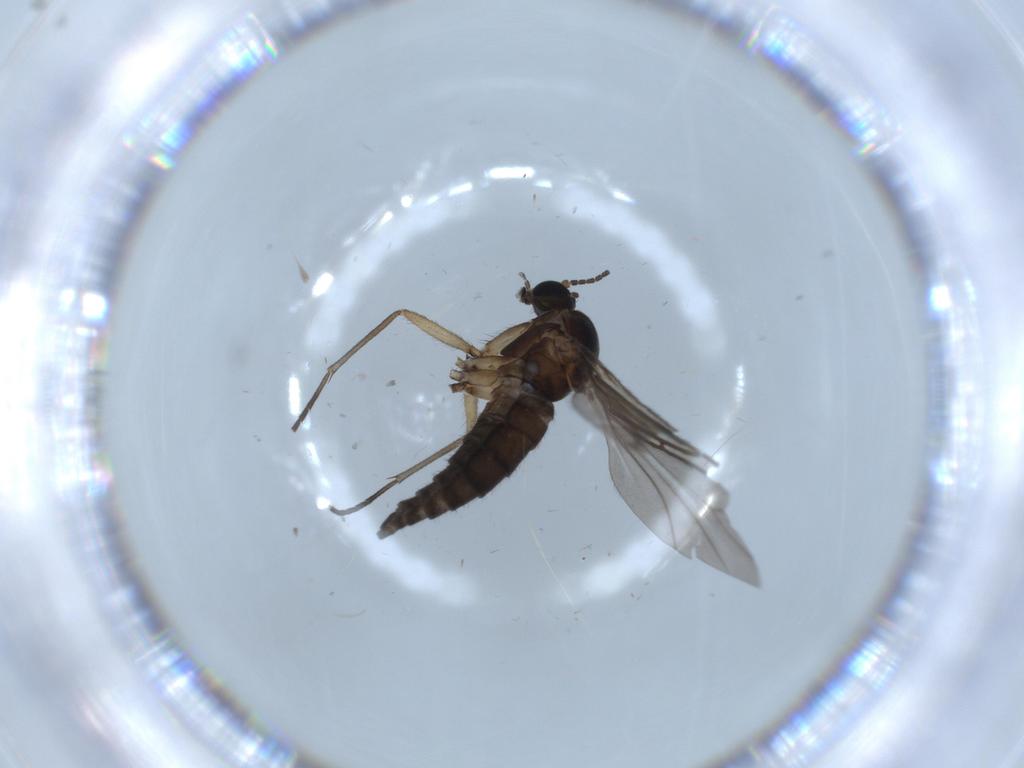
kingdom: Animalia
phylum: Arthropoda
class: Insecta
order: Diptera
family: Sciaridae
